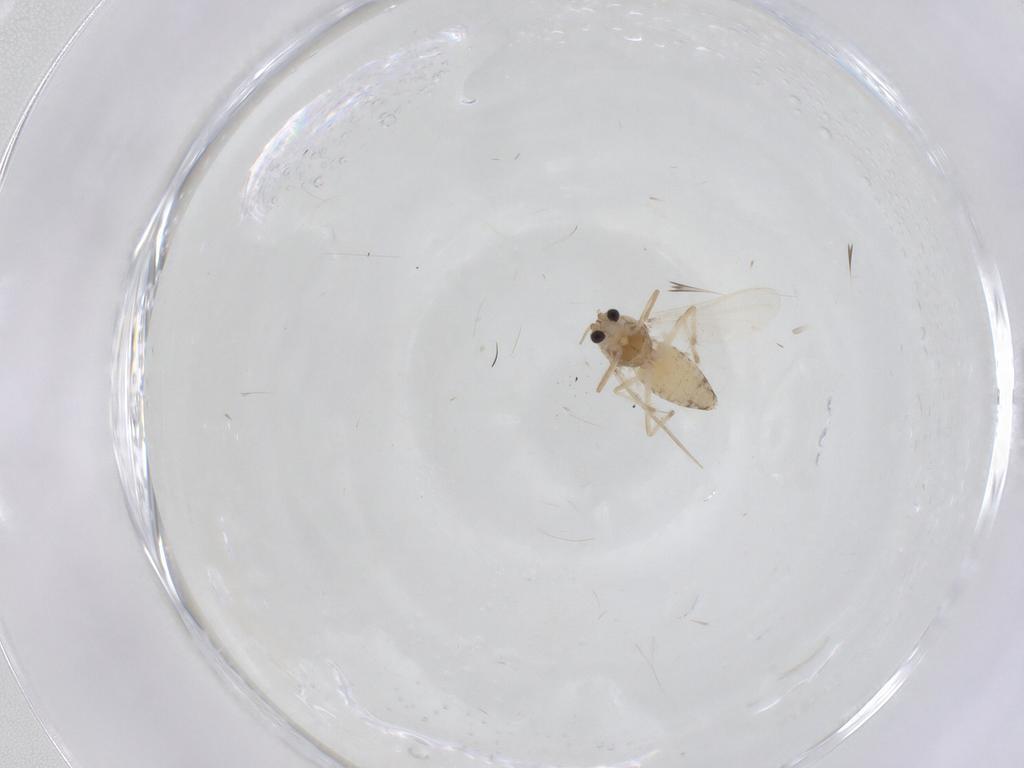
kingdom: Animalia
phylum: Arthropoda
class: Insecta
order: Diptera
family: Chironomidae
